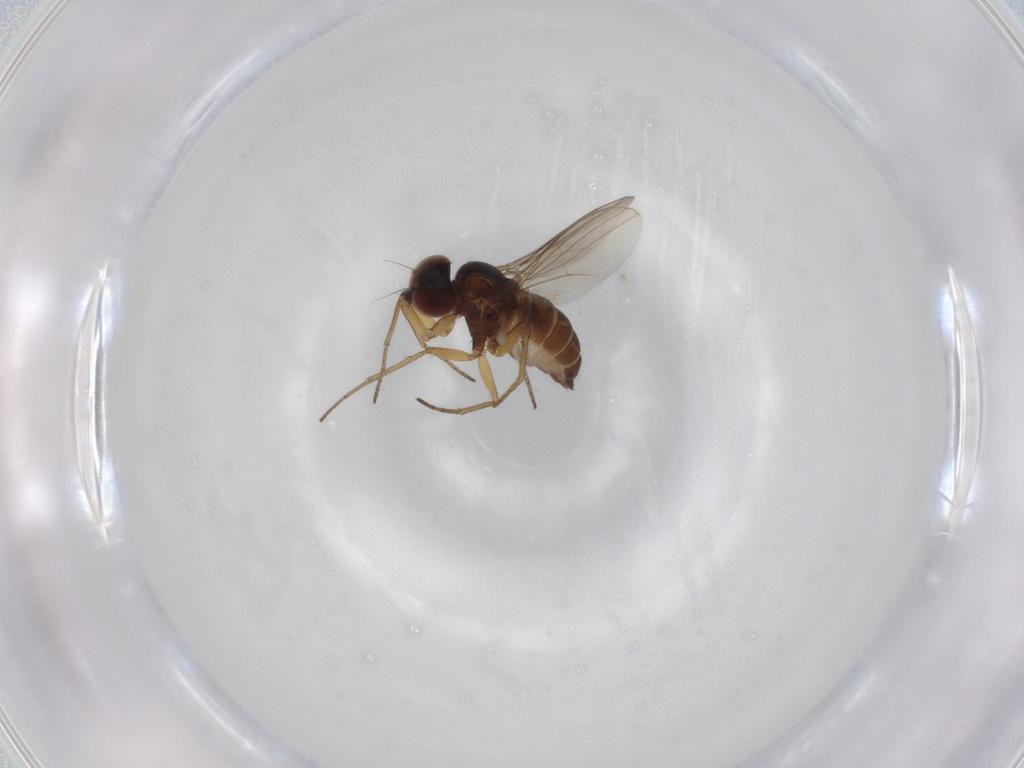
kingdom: Animalia
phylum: Arthropoda
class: Insecta
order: Diptera
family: Dolichopodidae
